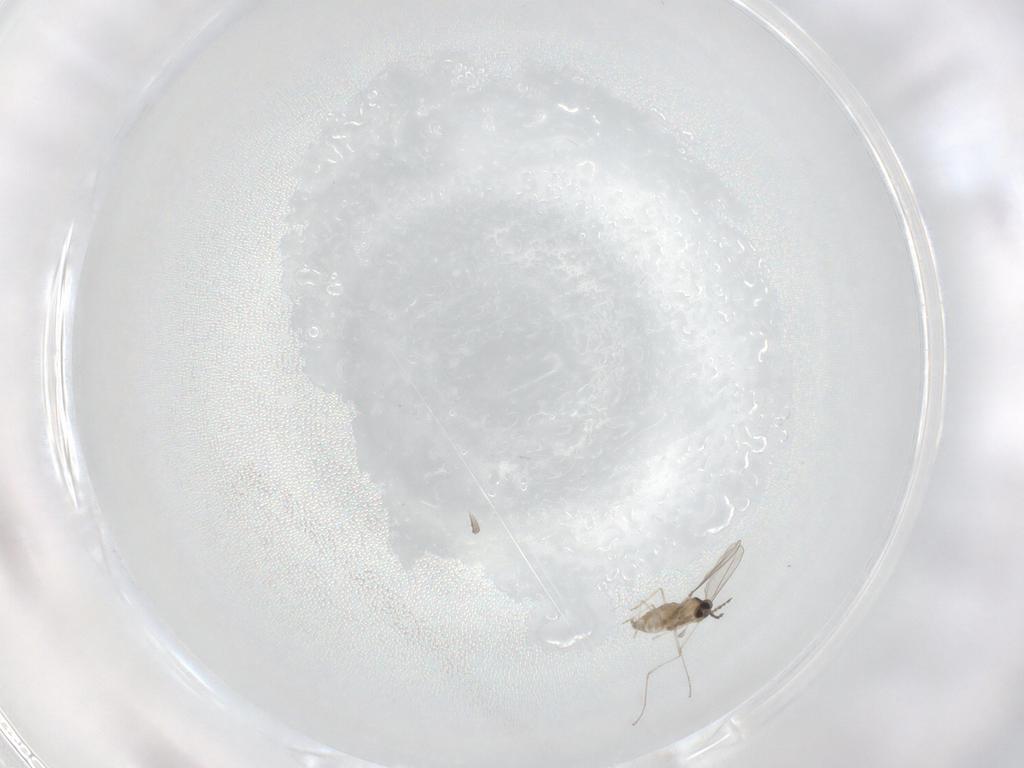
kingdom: Animalia
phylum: Arthropoda
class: Insecta
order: Diptera
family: Cecidomyiidae
